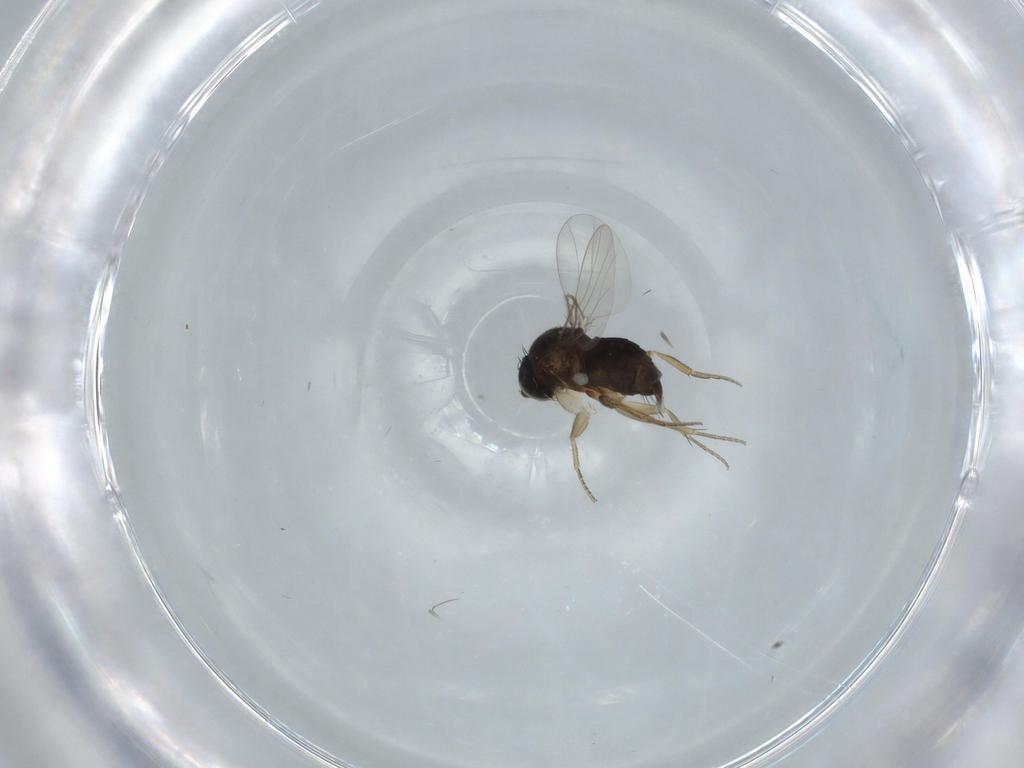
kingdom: Animalia
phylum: Arthropoda
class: Insecta
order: Diptera
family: Phoridae
